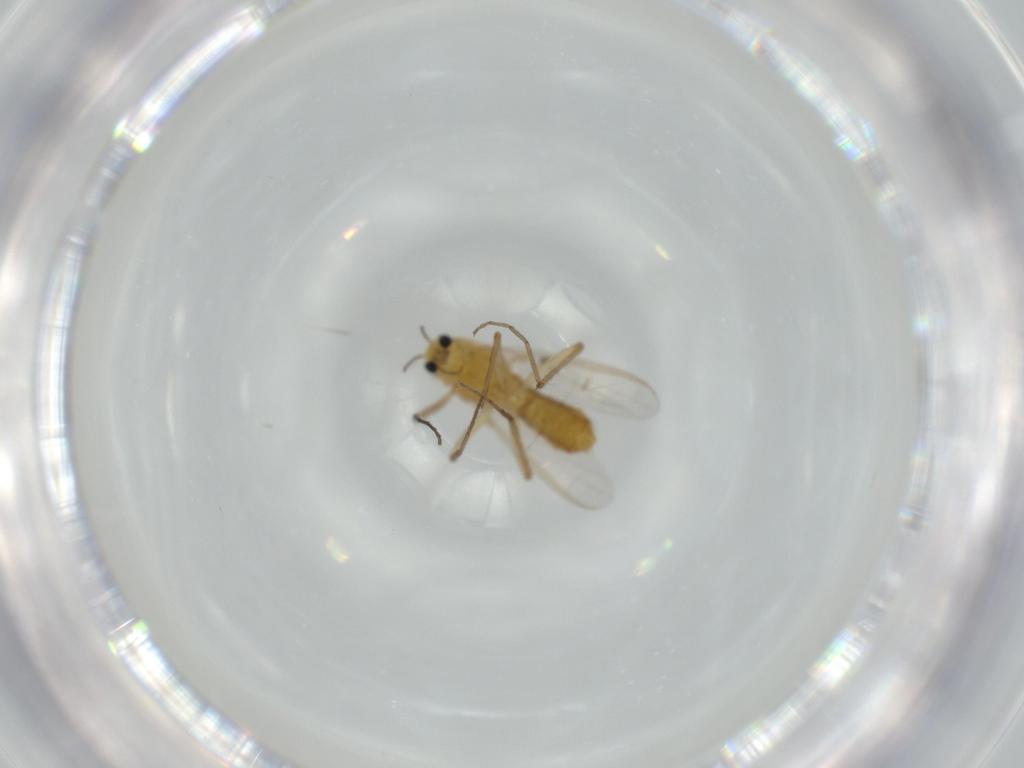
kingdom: Animalia
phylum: Arthropoda
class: Insecta
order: Diptera
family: Chironomidae
